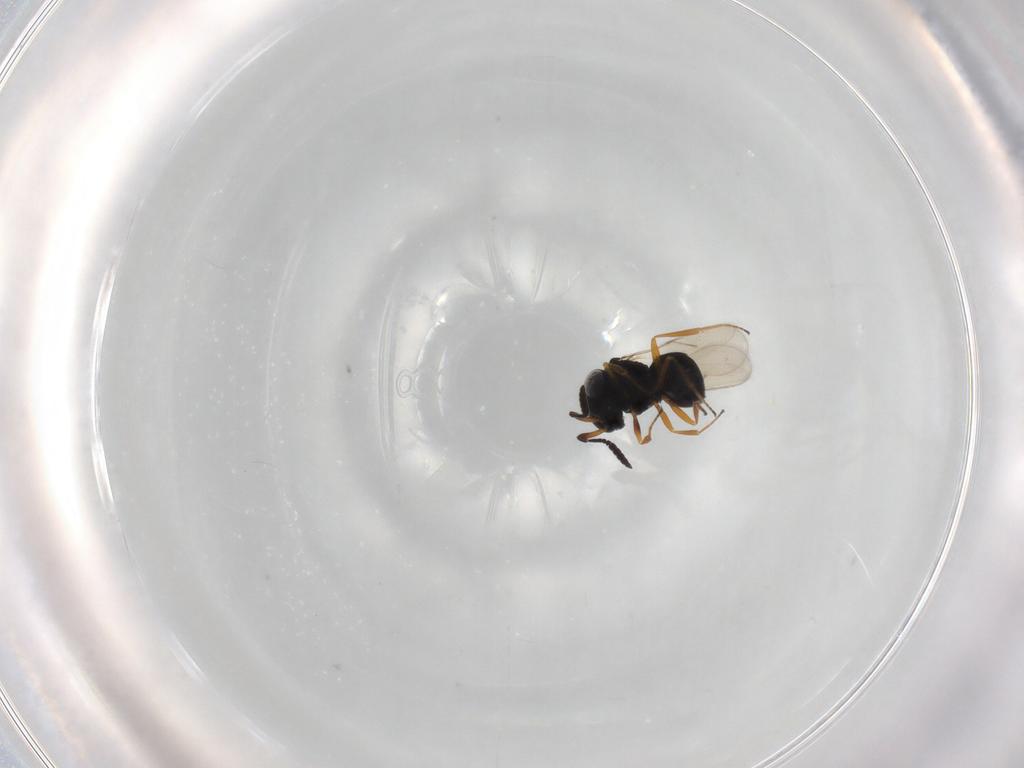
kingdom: Animalia
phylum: Arthropoda
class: Insecta
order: Hymenoptera
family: Scelionidae
